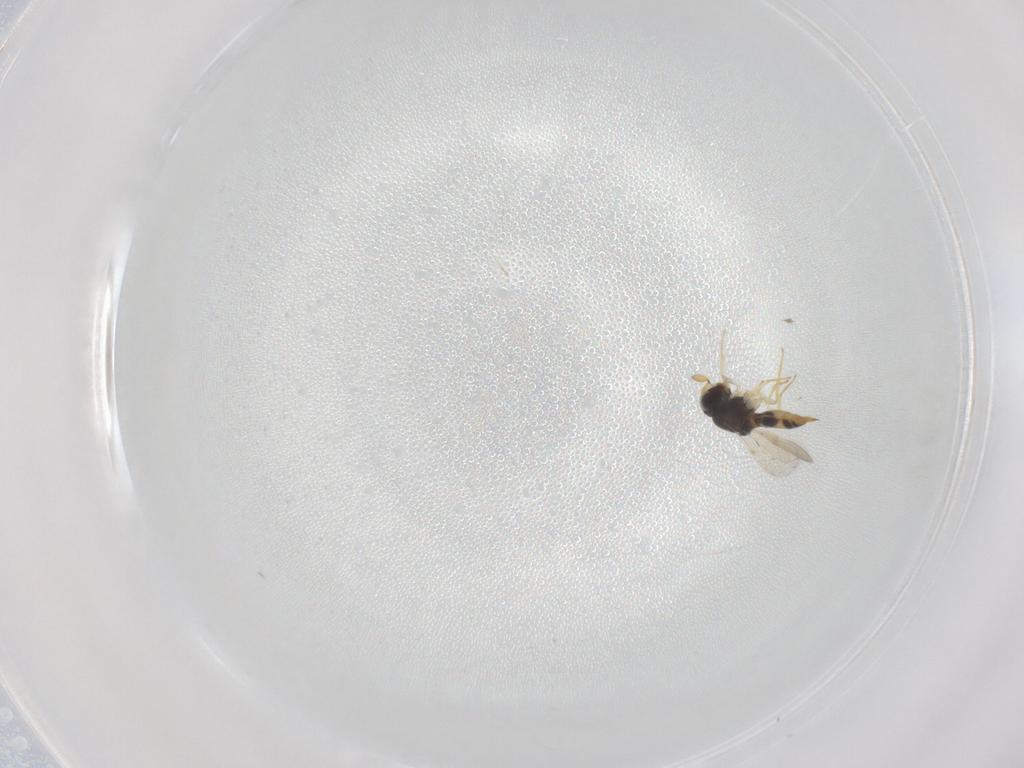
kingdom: Animalia
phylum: Arthropoda
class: Insecta
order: Hymenoptera
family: Scelionidae
